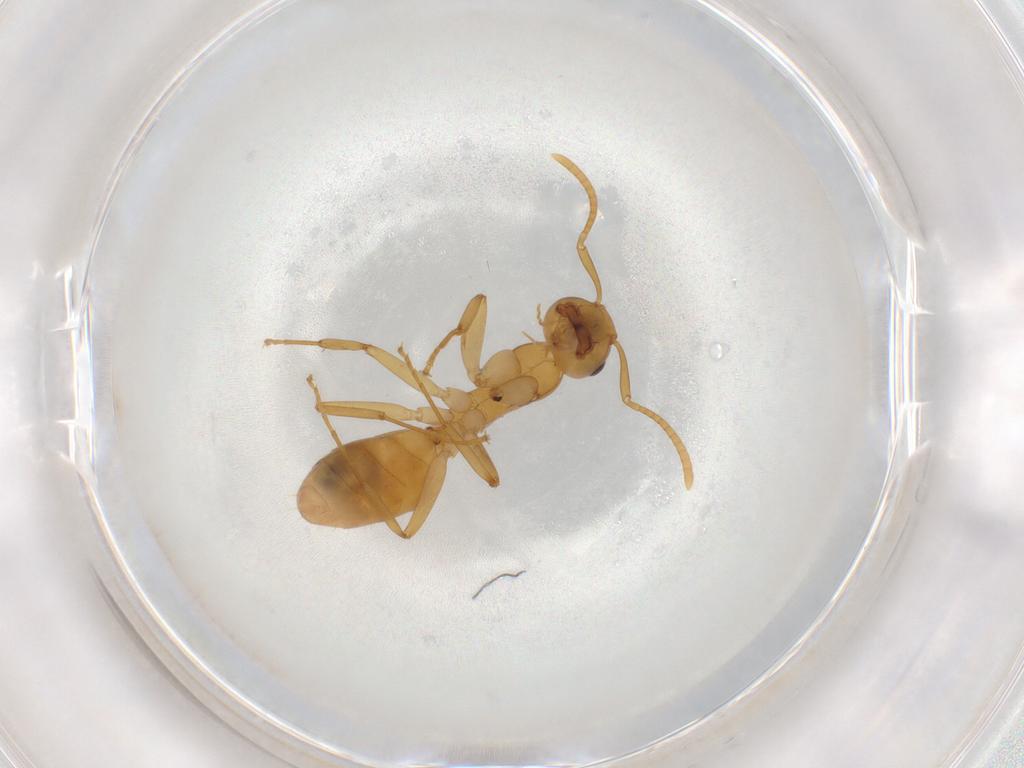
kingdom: Animalia
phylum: Arthropoda
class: Insecta
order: Hymenoptera
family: Formicidae
